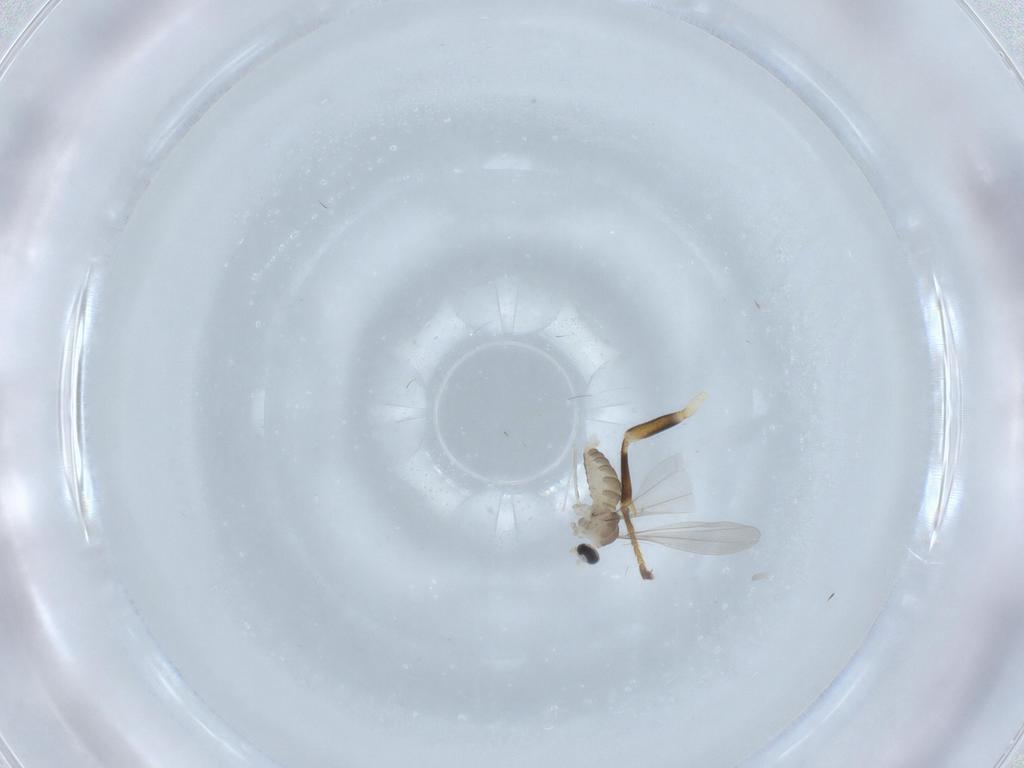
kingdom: Animalia
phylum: Arthropoda
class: Insecta
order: Diptera
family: Cecidomyiidae
